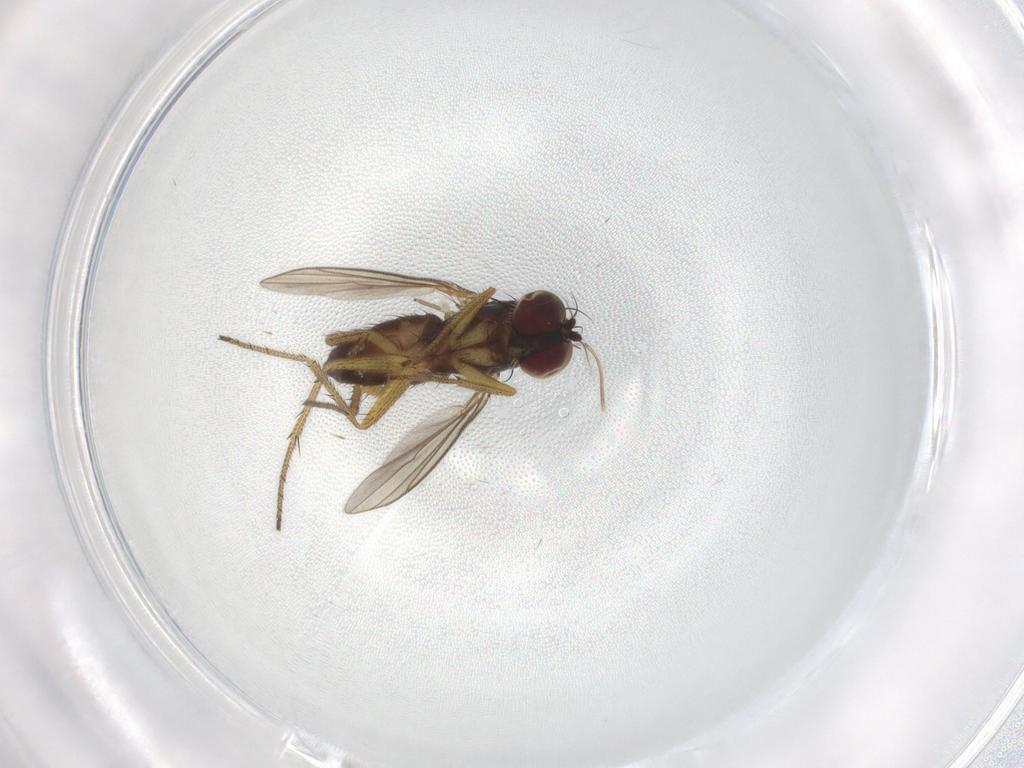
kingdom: Animalia
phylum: Arthropoda
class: Insecta
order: Diptera
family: Dolichopodidae
